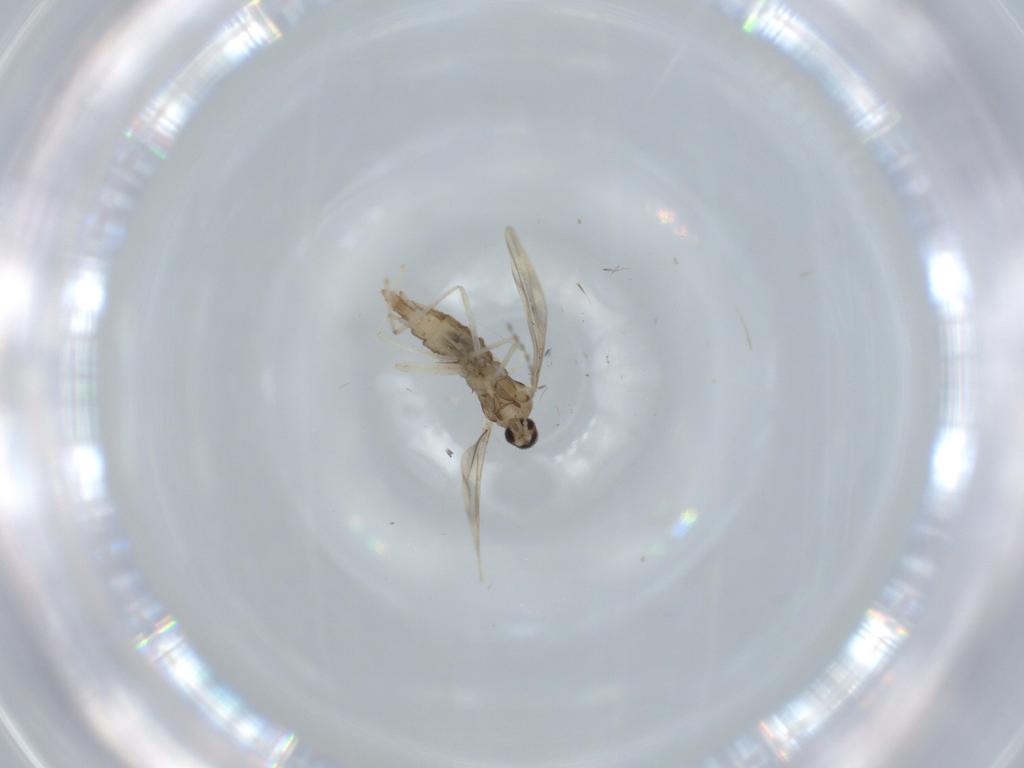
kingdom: Animalia
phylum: Arthropoda
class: Insecta
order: Diptera
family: Cecidomyiidae
